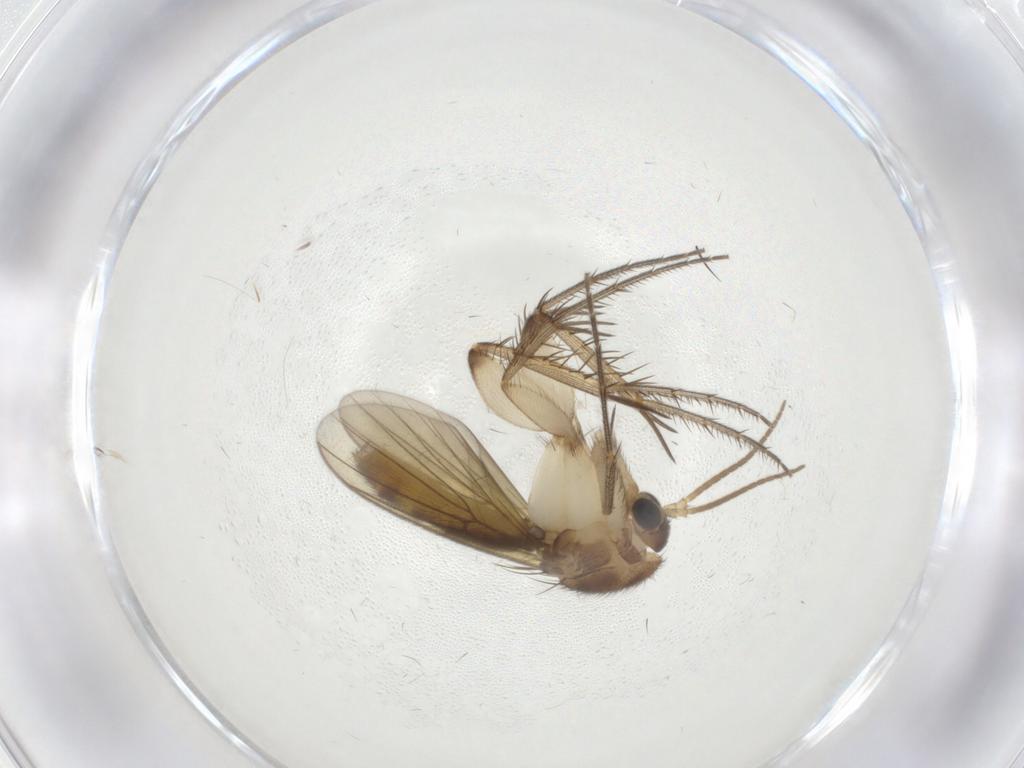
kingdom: Animalia
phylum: Arthropoda
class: Insecta
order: Diptera
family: Mycetophilidae
